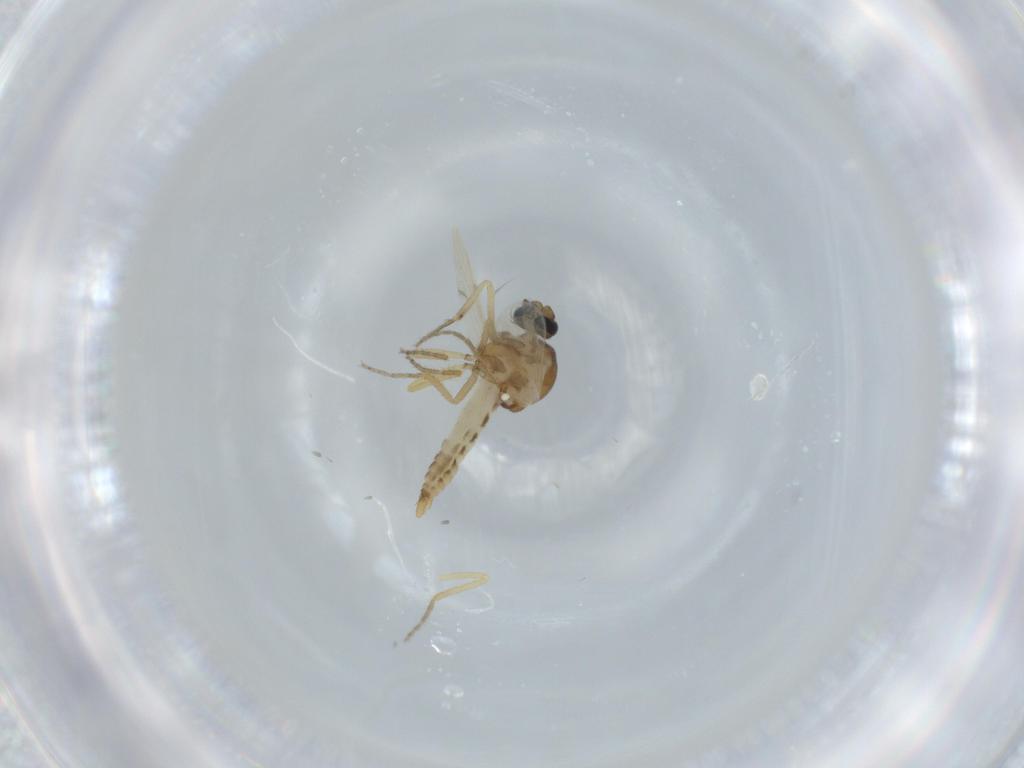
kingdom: Animalia
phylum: Arthropoda
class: Insecta
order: Diptera
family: Ceratopogonidae
